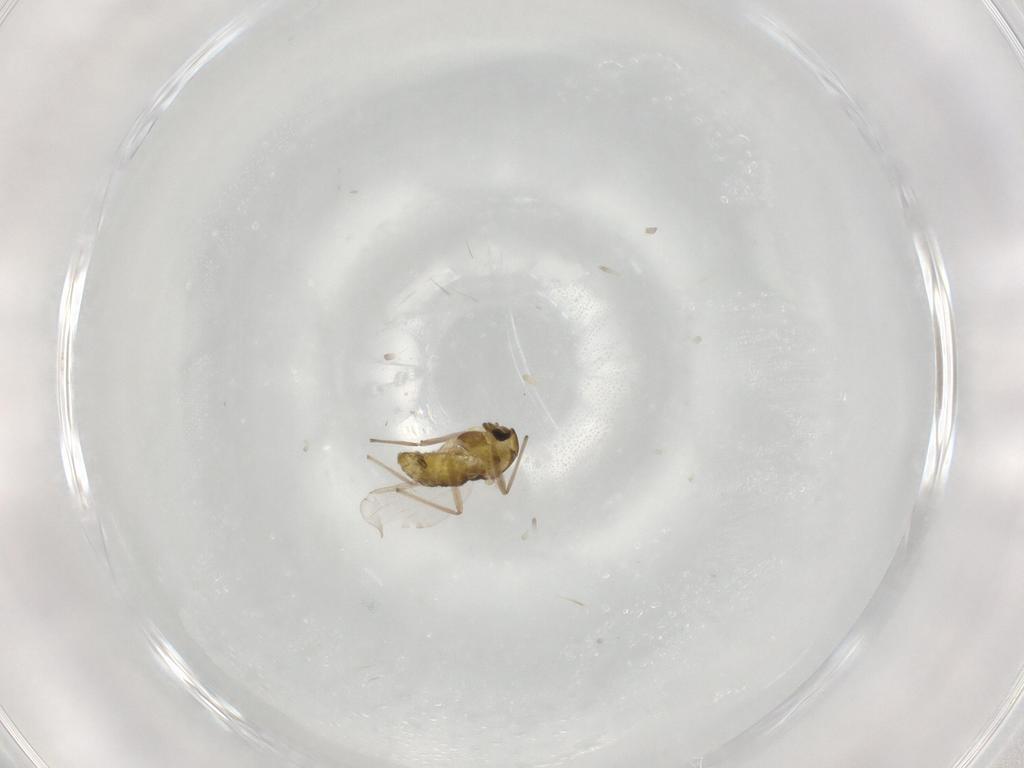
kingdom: Animalia
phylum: Arthropoda
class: Insecta
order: Diptera
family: Chironomidae
